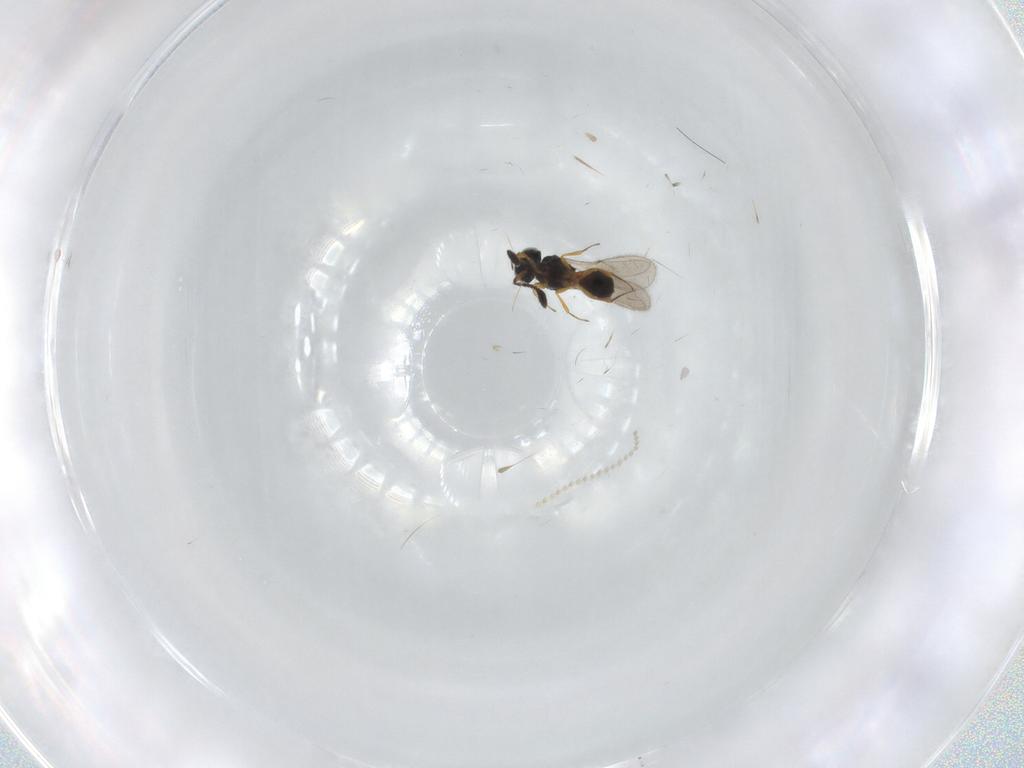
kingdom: Animalia
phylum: Arthropoda
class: Insecta
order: Hymenoptera
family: Scelionidae
